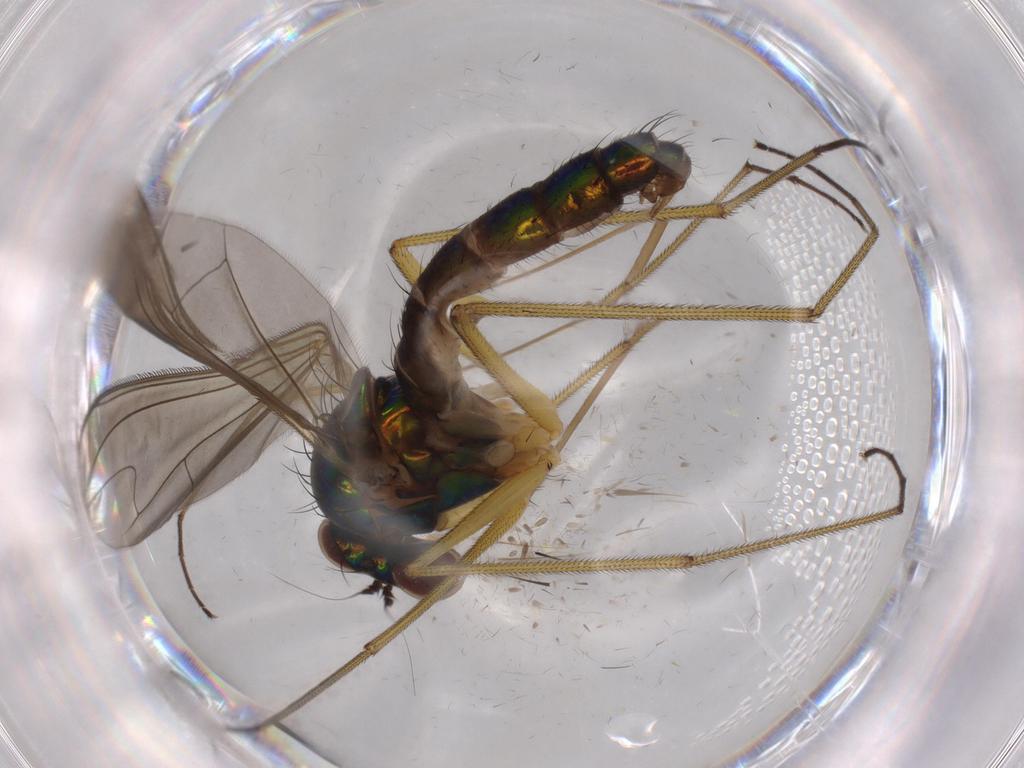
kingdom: Animalia
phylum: Arthropoda
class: Insecta
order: Diptera
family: Dolichopodidae
